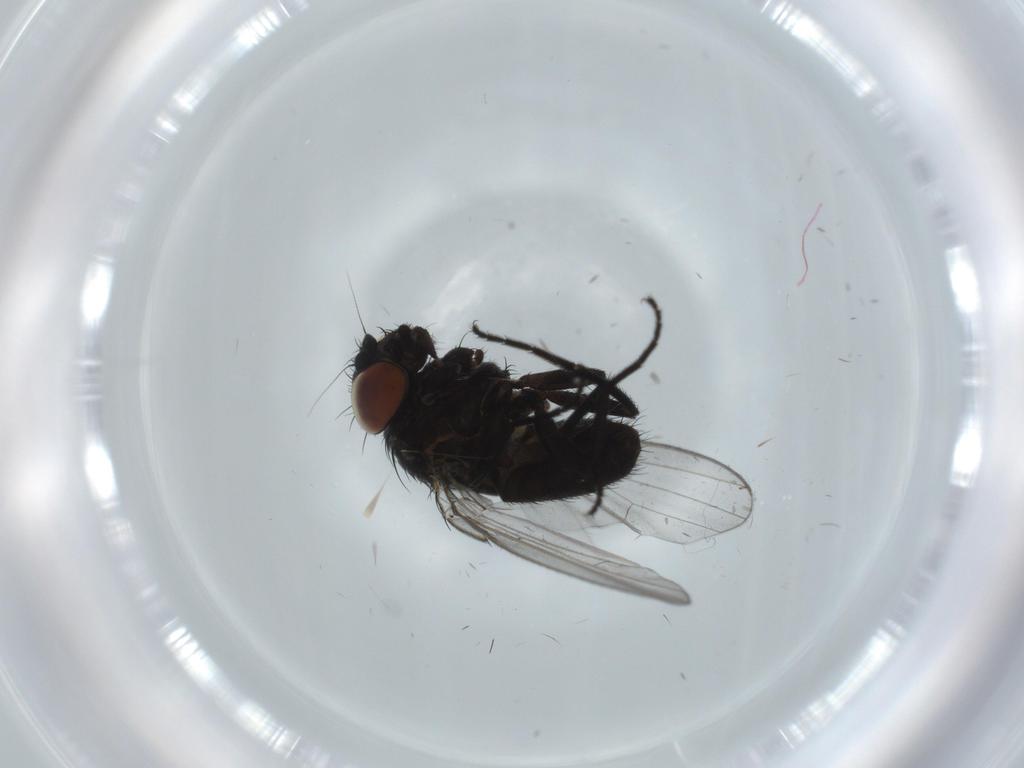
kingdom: Animalia
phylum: Arthropoda
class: Insecta
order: Diptera
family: Milichiidae
